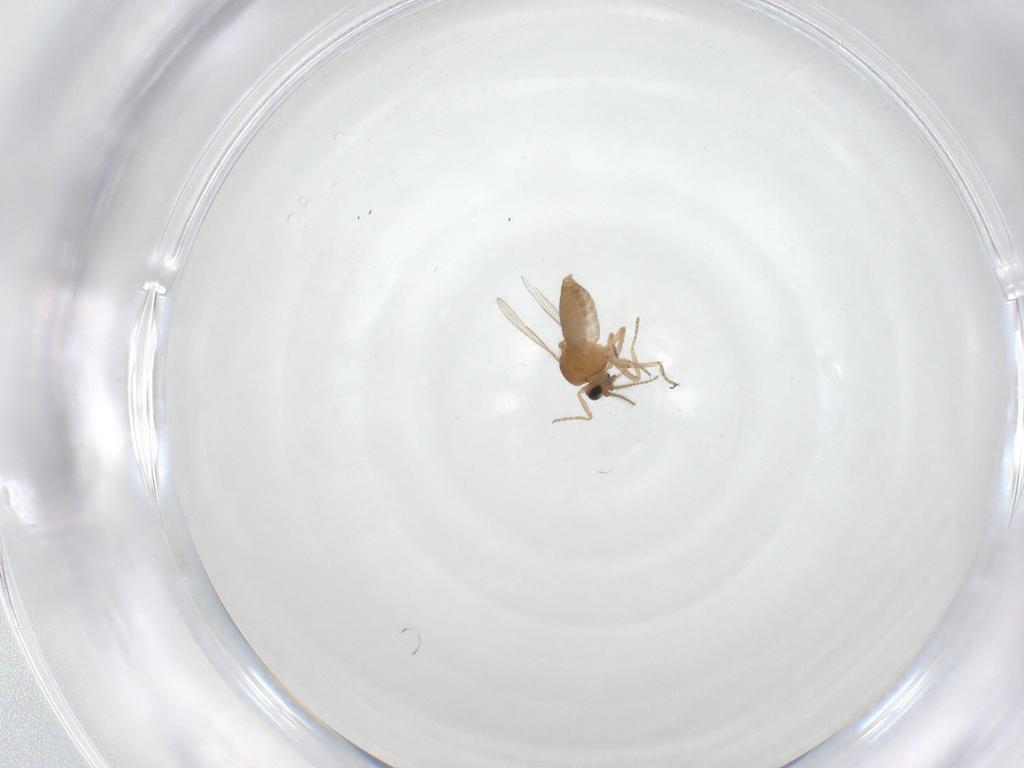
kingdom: Animalia
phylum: Arthropoda
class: Insecta
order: Diptera
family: Ceratopogonidae
